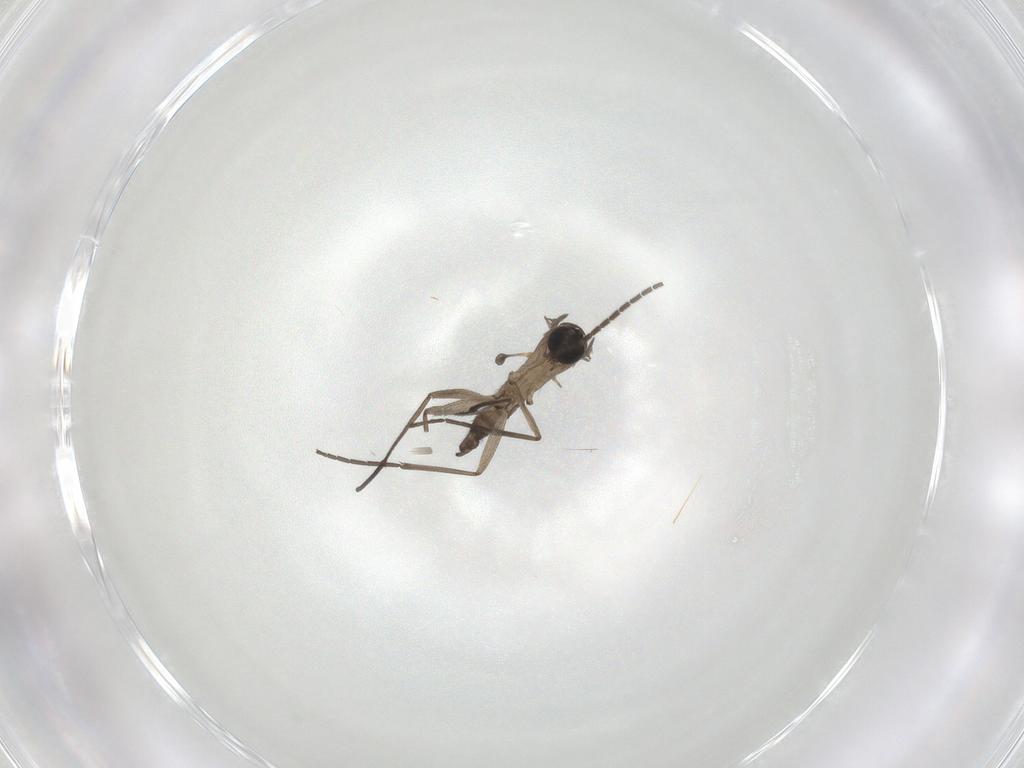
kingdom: Animalia
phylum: Arthropoda
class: Insecta
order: Diptera
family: Sciaridae
